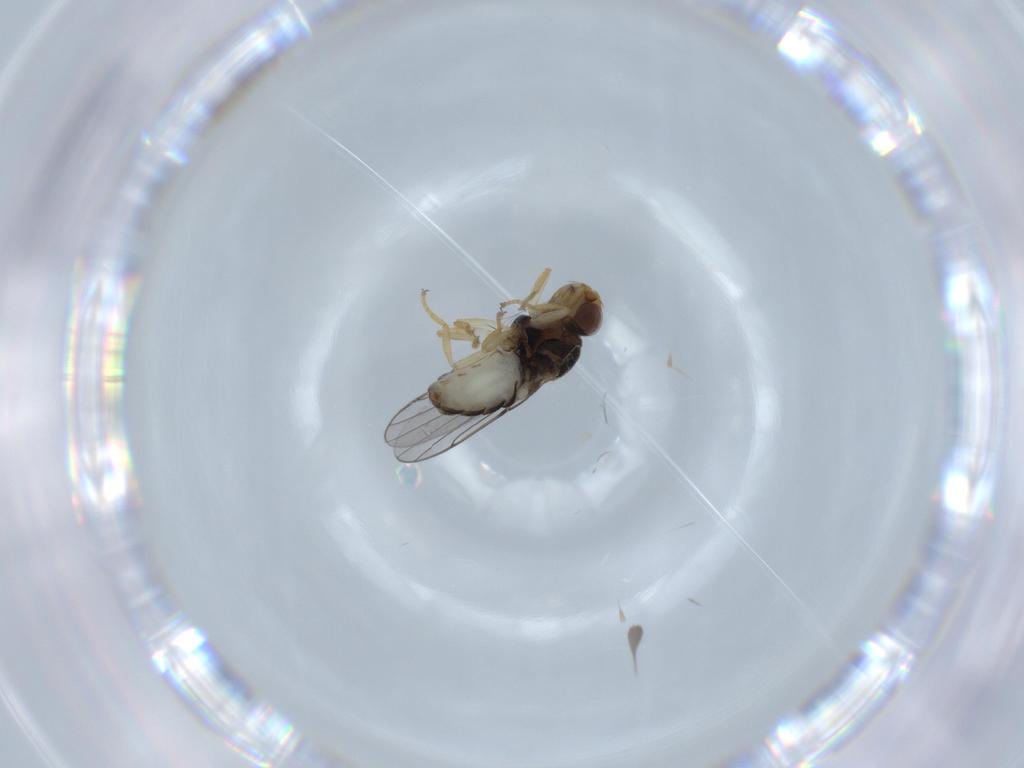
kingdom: Animalia
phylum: Arthropoda
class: Insecta
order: Diptera
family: Chloropidae
